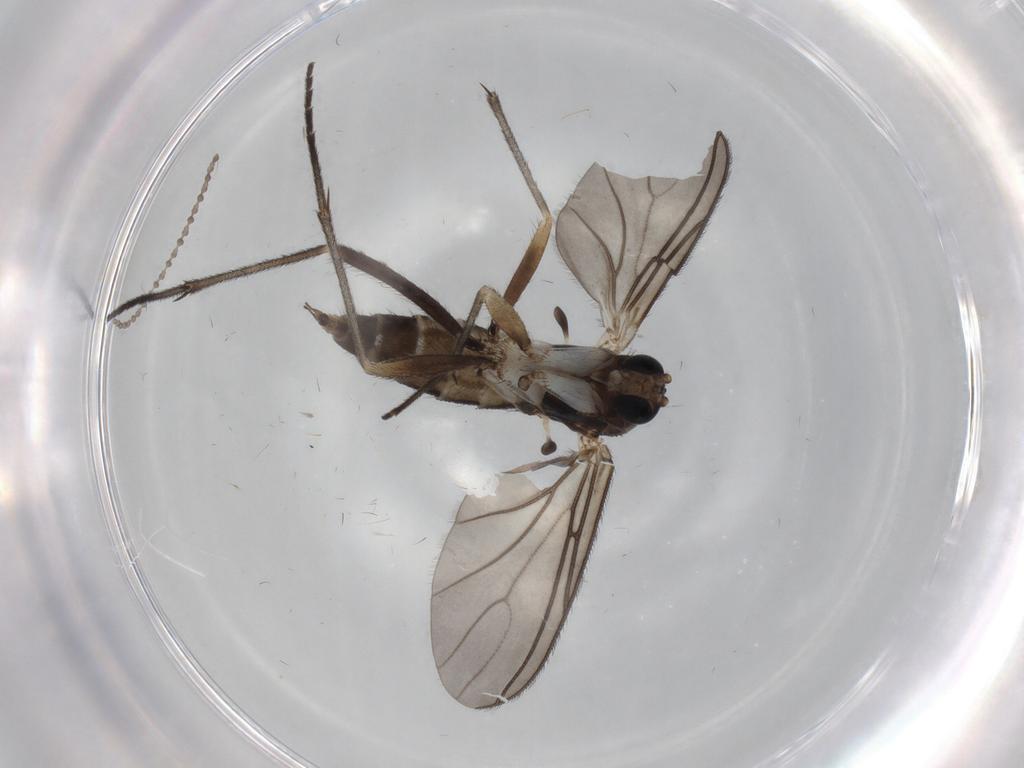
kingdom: Animalia
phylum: Arthropoda
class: Insecta
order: Diptera
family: Sciaridae
